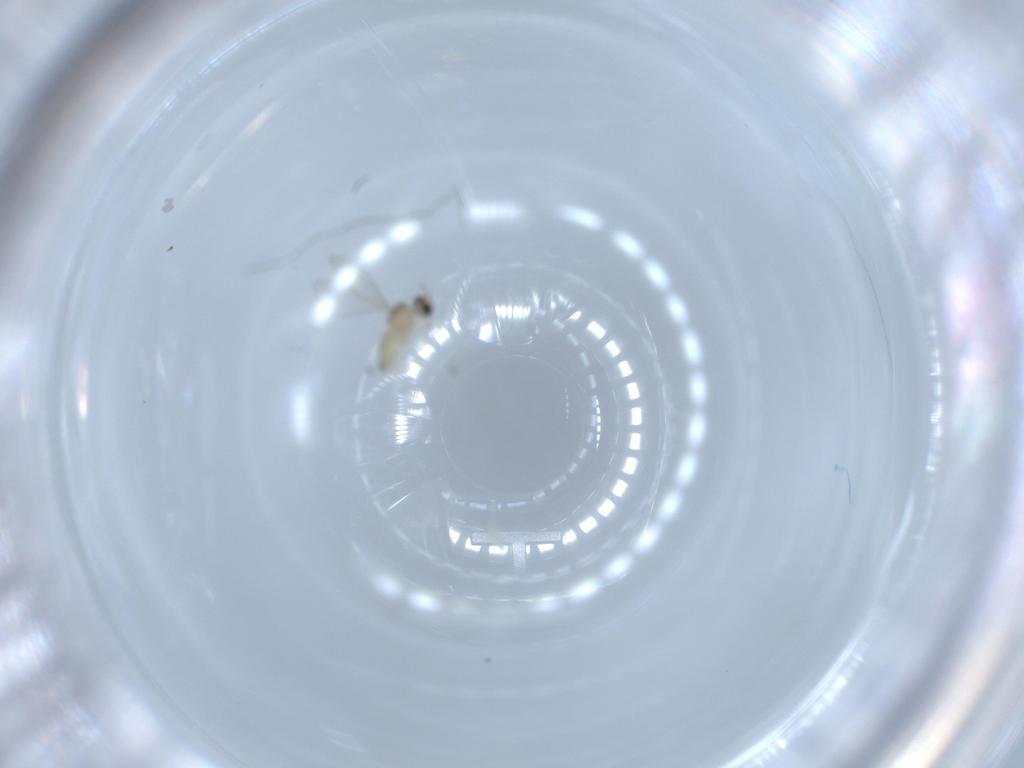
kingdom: Animalia
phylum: Arthropoda
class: Insecta
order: Diptera
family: Cecidomyiidae
